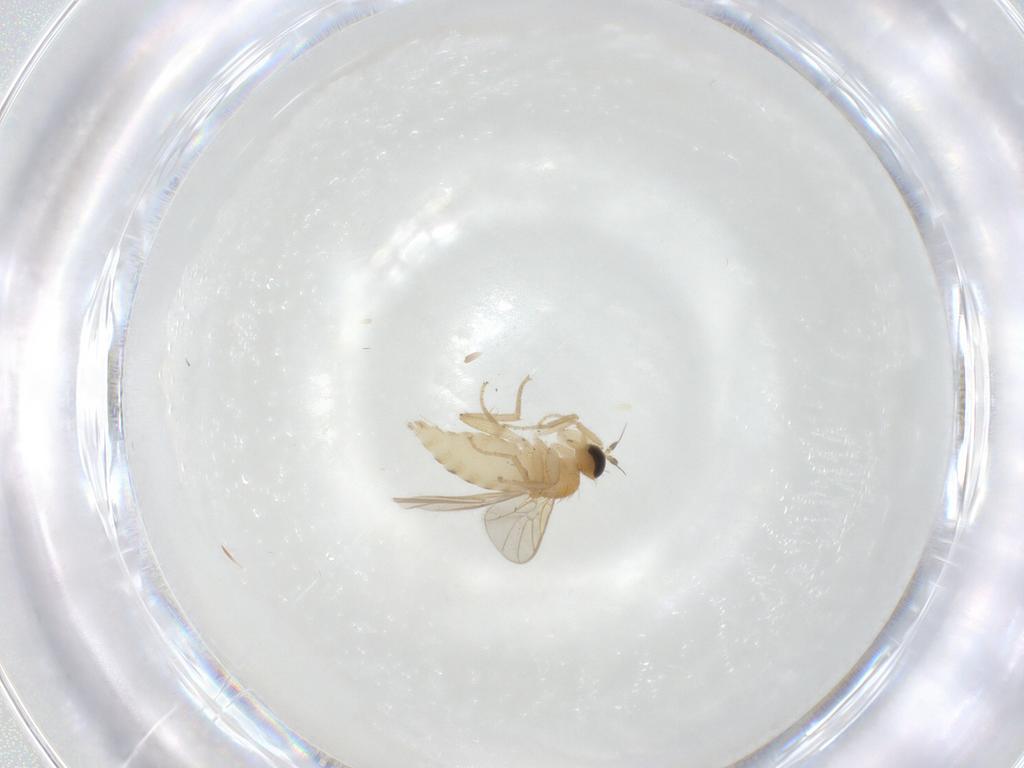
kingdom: Animalia
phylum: Arthropoda
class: Insecta
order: Diptera
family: Hybotidae
